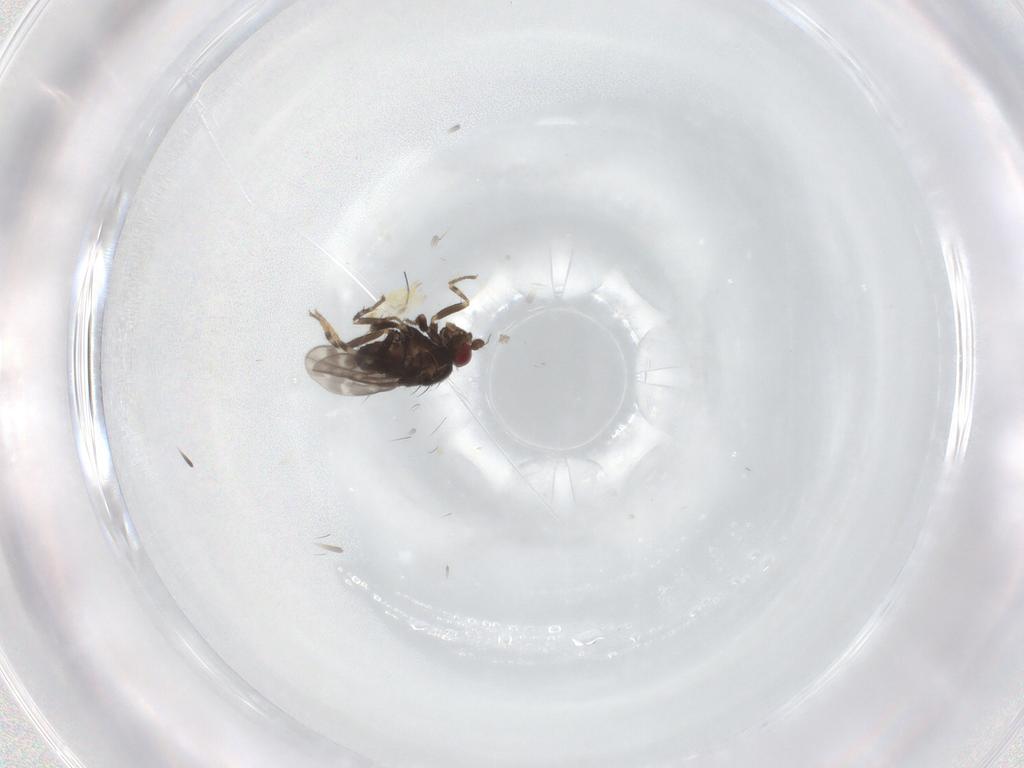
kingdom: Animalia
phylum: Arthropoda
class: Insecta
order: Diptera
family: Sphaeroceridae
